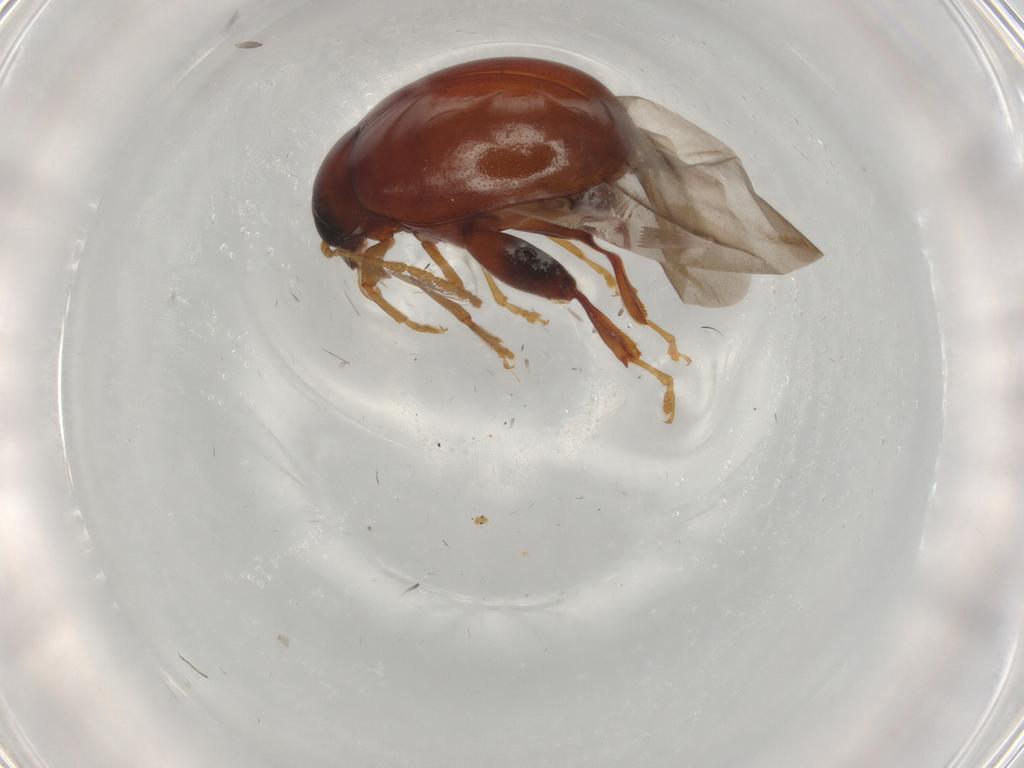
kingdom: Animalia
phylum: Arthropoda
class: Insecta
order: Coleoptera
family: Chrysomelidae
